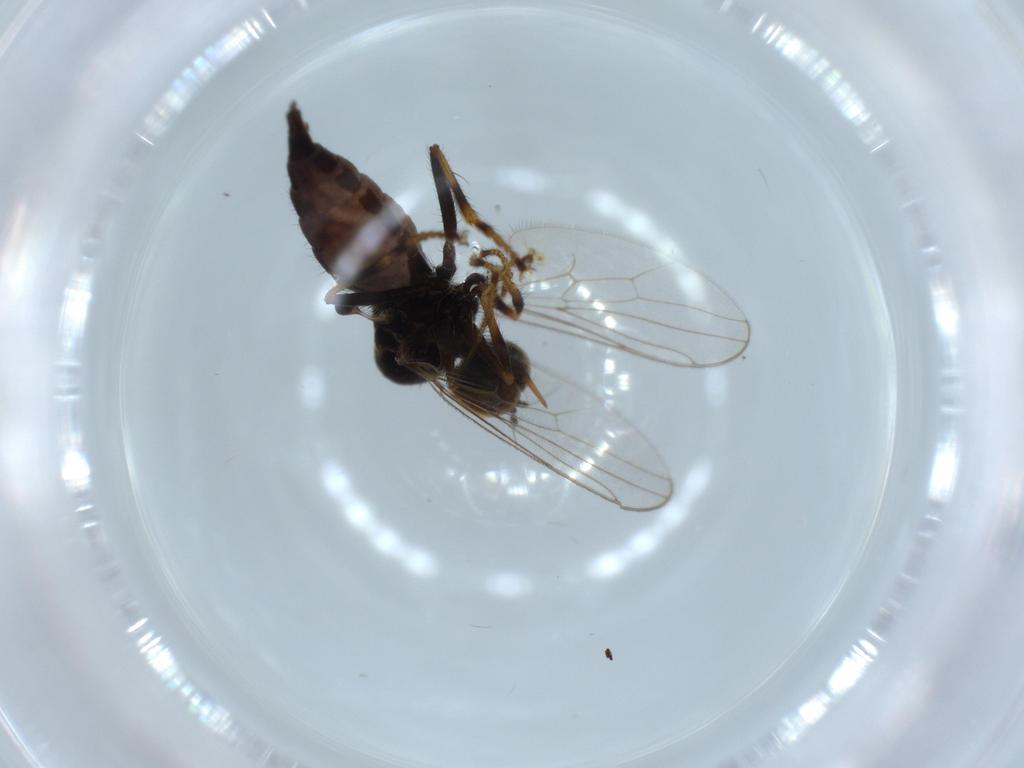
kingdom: Animalia
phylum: Arthropoda
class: Insecta
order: Diptera
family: Hybotidae
